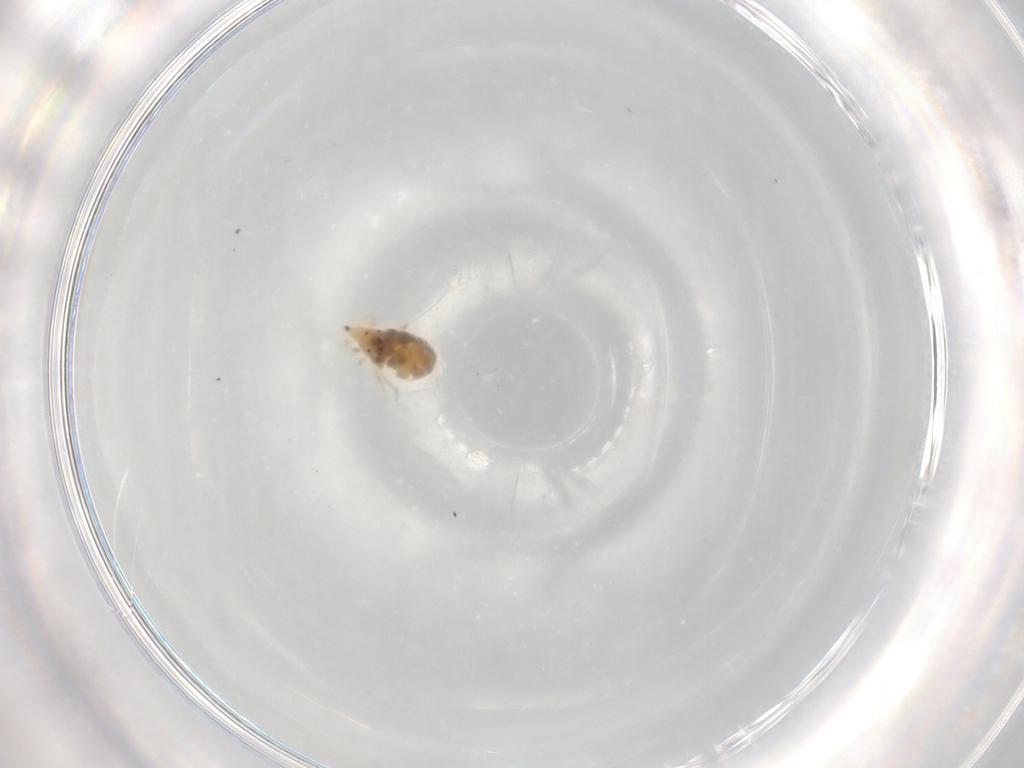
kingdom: Animalia
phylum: Arthropoda
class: Arachnida
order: Trombidiformes
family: Bdellidae
